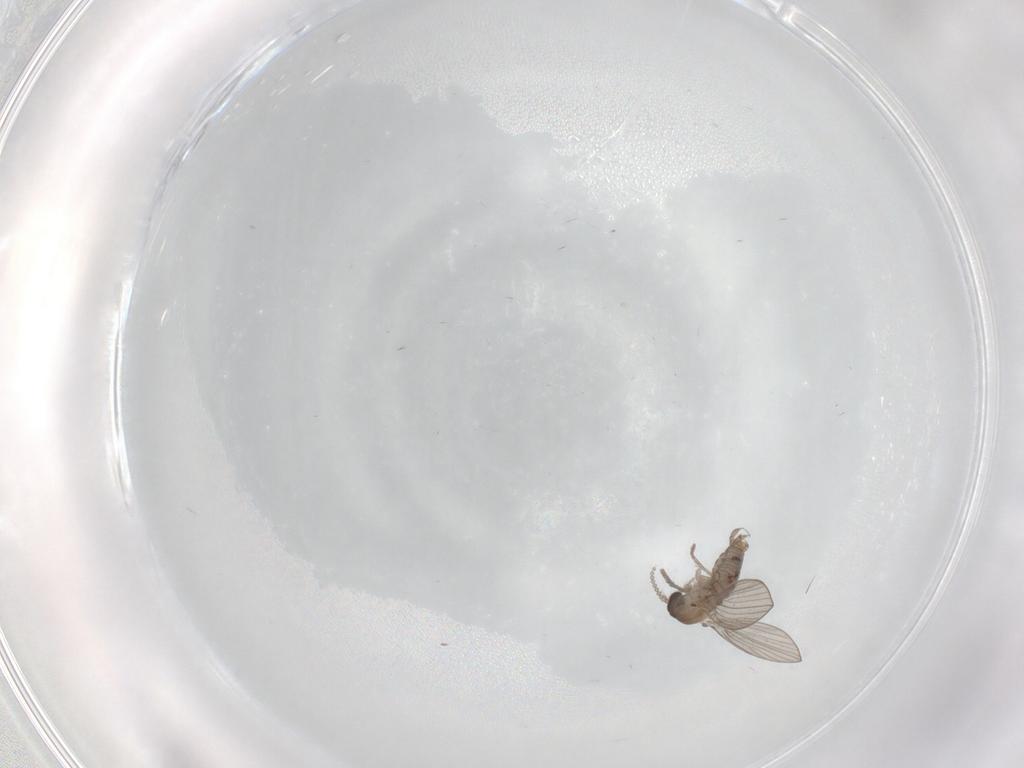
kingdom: Animalia
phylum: Arthropoda
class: Insecta
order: Diptera
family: Psychodidae
